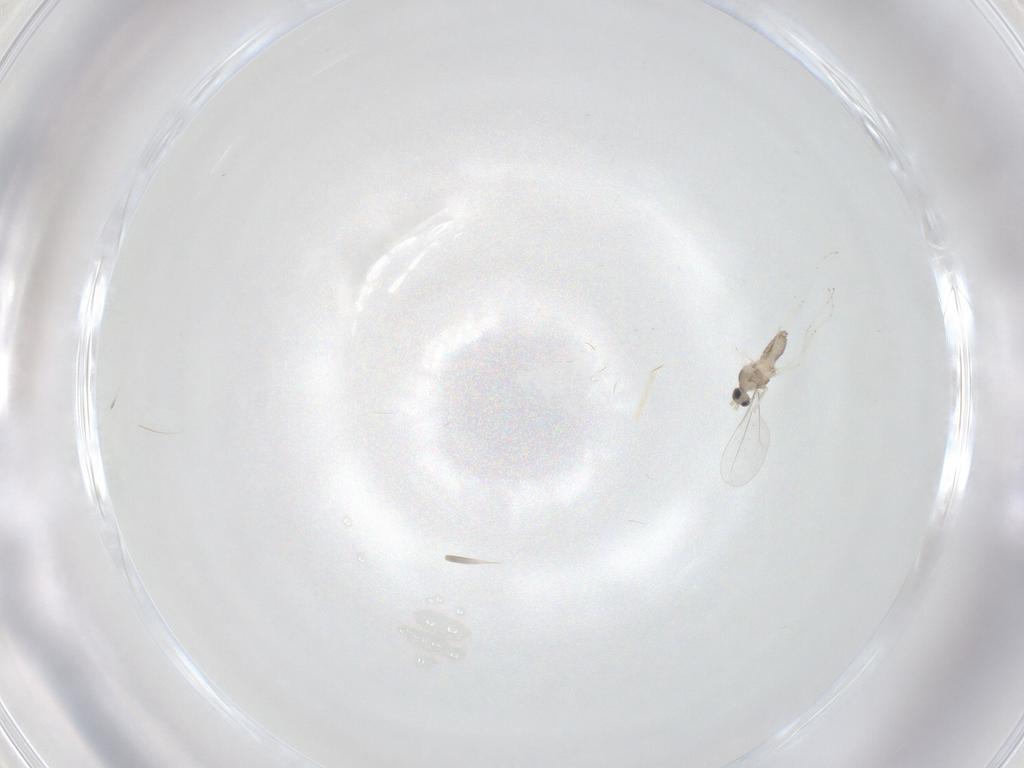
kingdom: Animalia
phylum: Arthropoda
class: Insecta
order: Diptera
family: Cecidomyiidae
